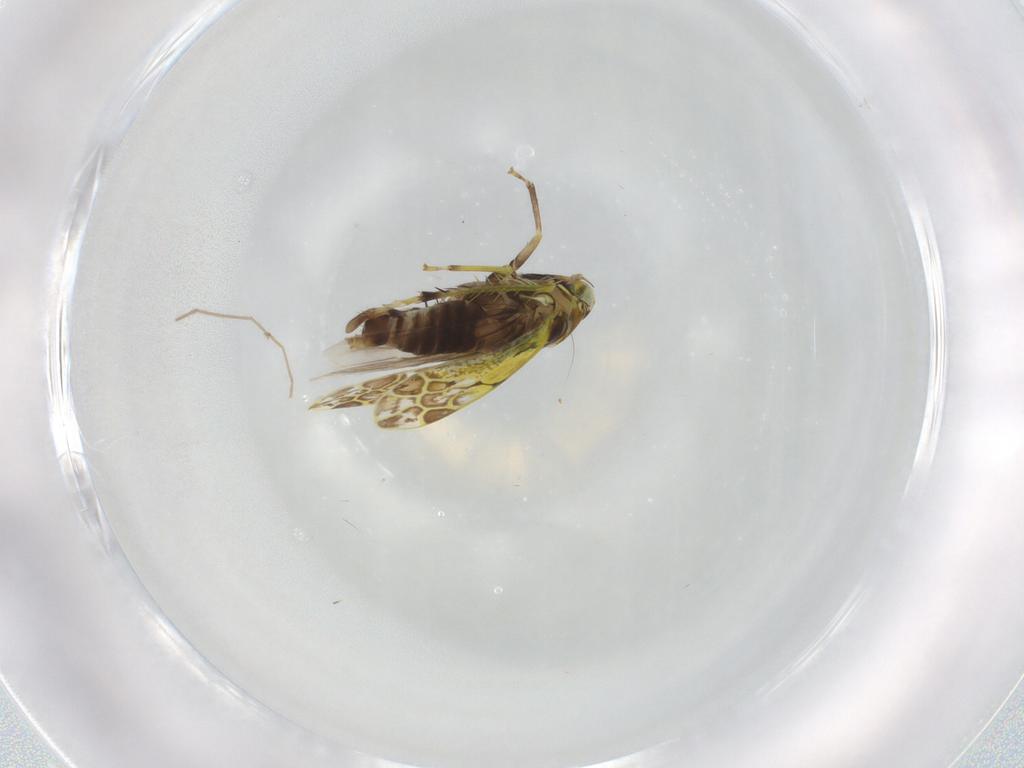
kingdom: Animalia
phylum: Arthropoda
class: Insecta
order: Hemiptera
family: Cicadellidae
